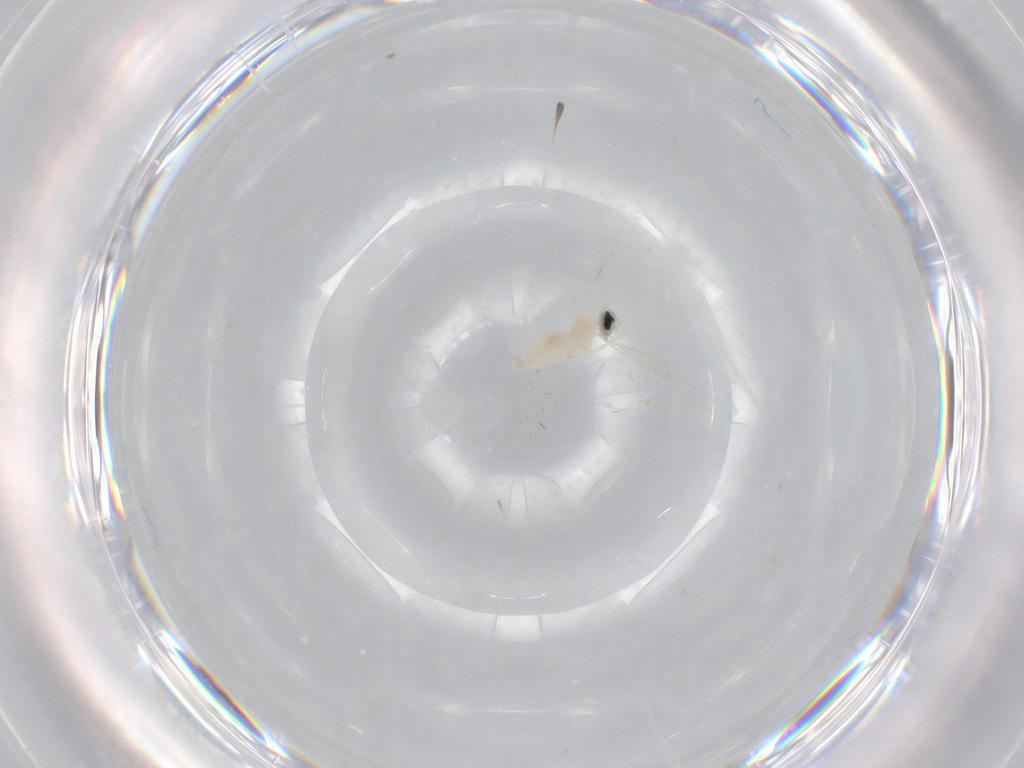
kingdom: Animalia
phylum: Arthropoda
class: Insecta
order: Diptera
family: Cecidomyiidae
